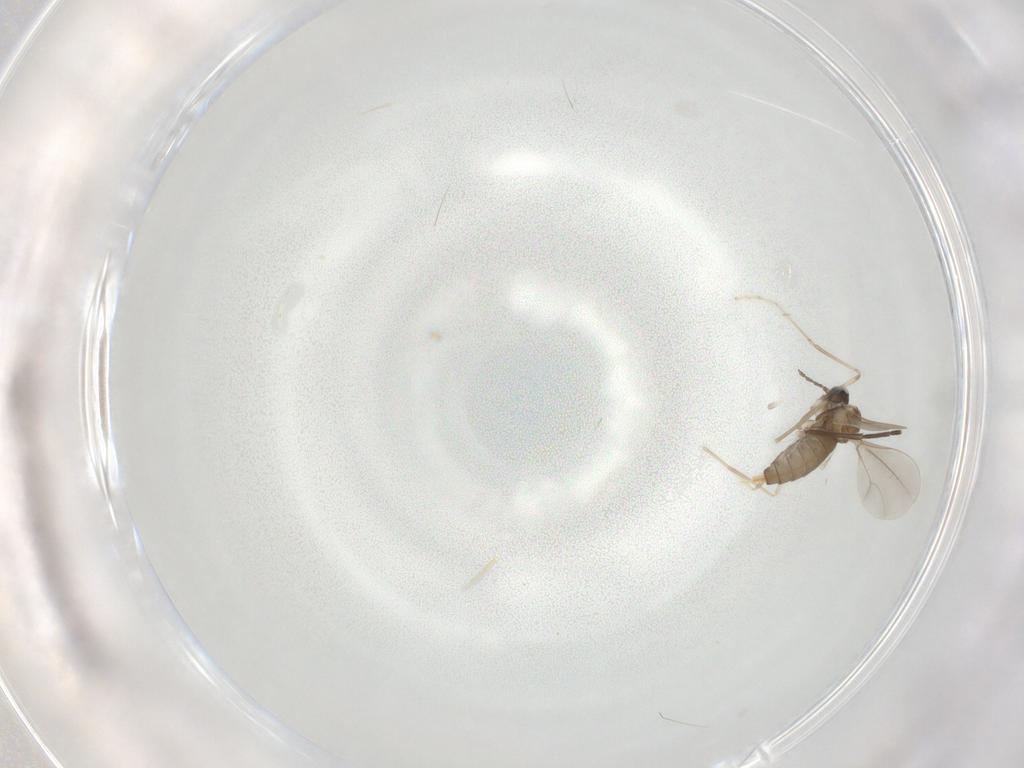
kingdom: Animalia
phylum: Arthropoda
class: Insecta
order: Diptera
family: Cecidomyiidae
